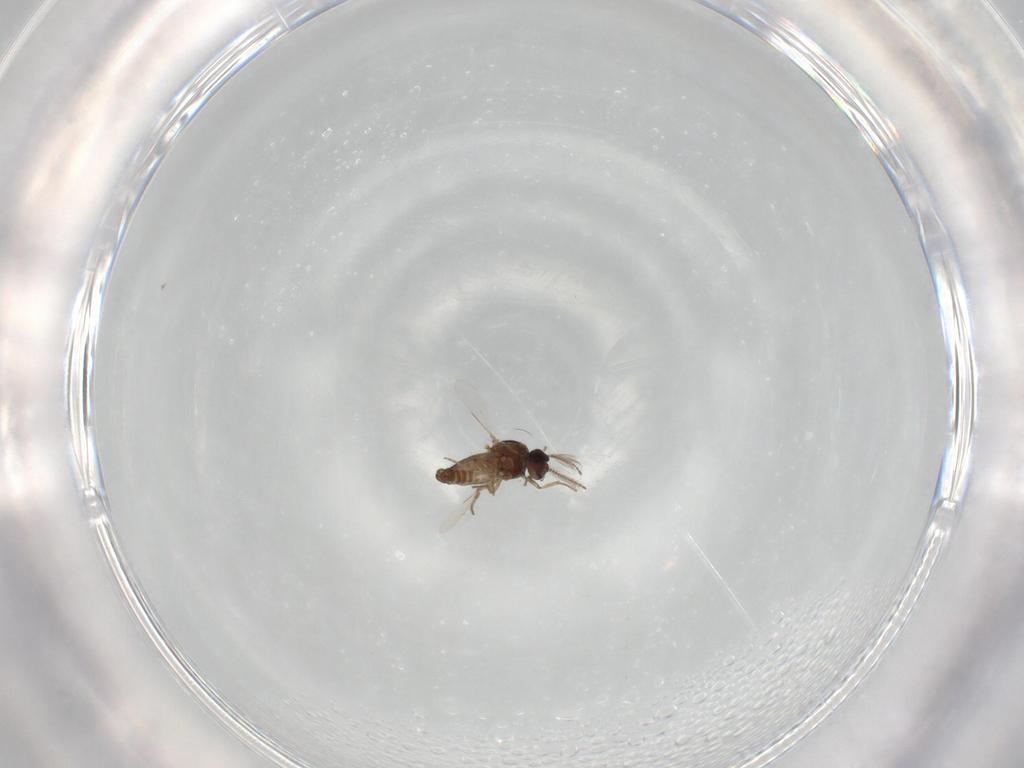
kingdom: Animalia
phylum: Arthropoda
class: Insecta
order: Diptera
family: Ceratopogonidae
